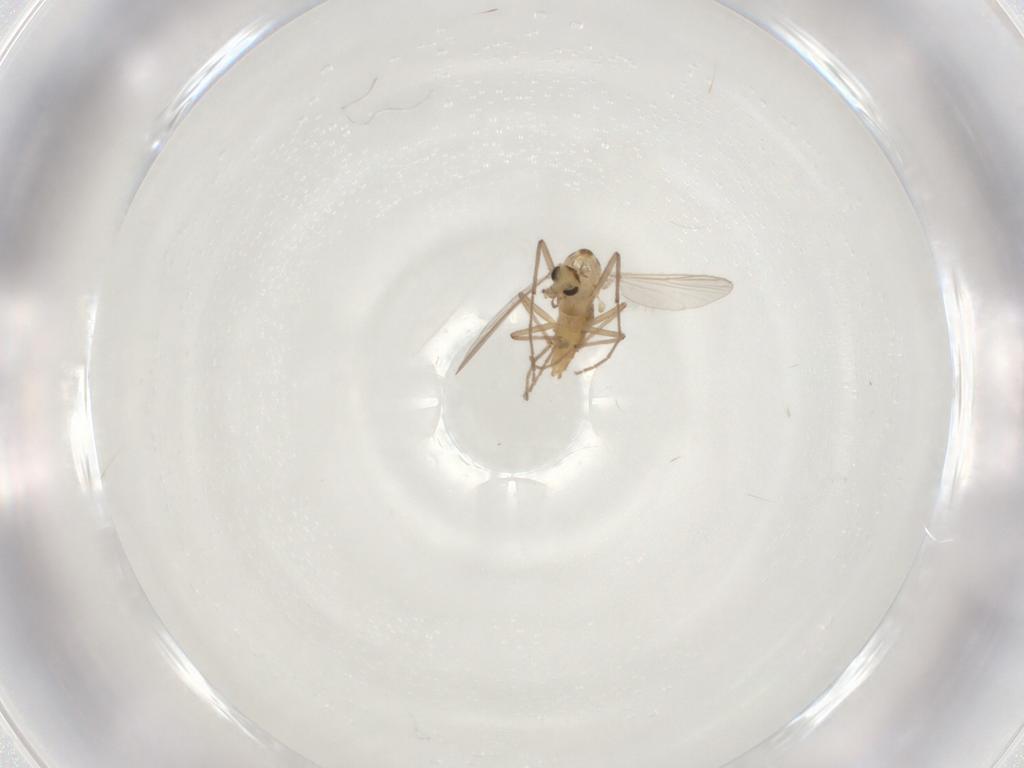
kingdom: Animalia
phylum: Arthropoda
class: Insecta
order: Diptera
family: Chironomidae
